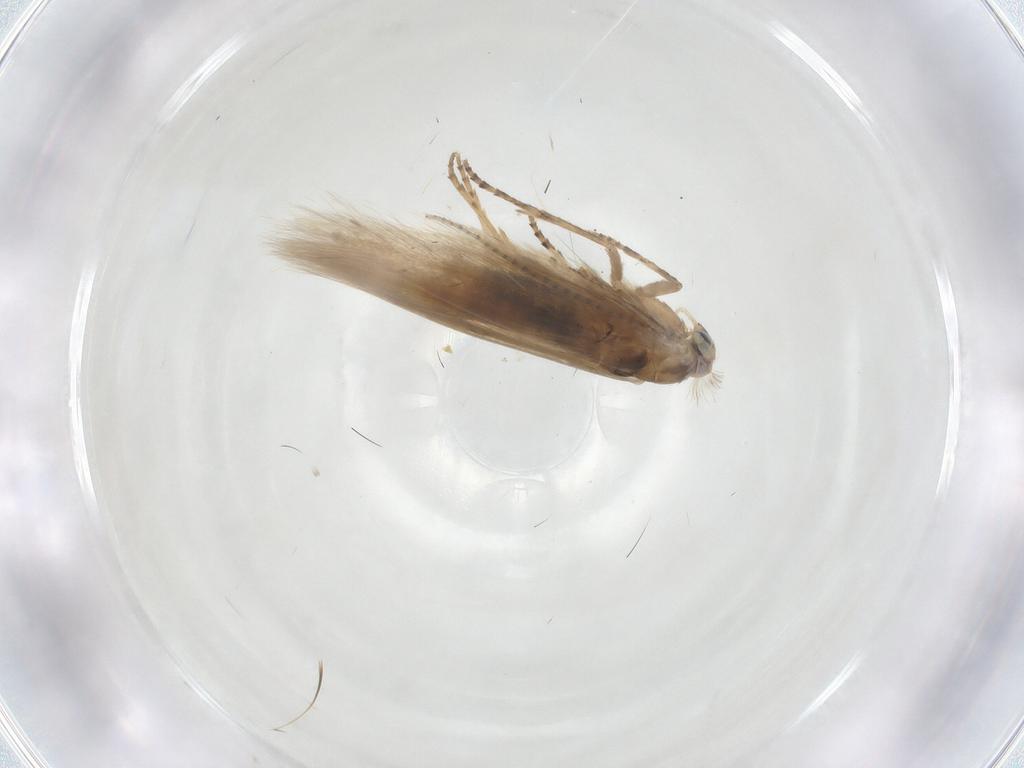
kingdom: Animalia
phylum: Arthropoda
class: Insecta
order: Lepidoptera
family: Bucculatricidae
